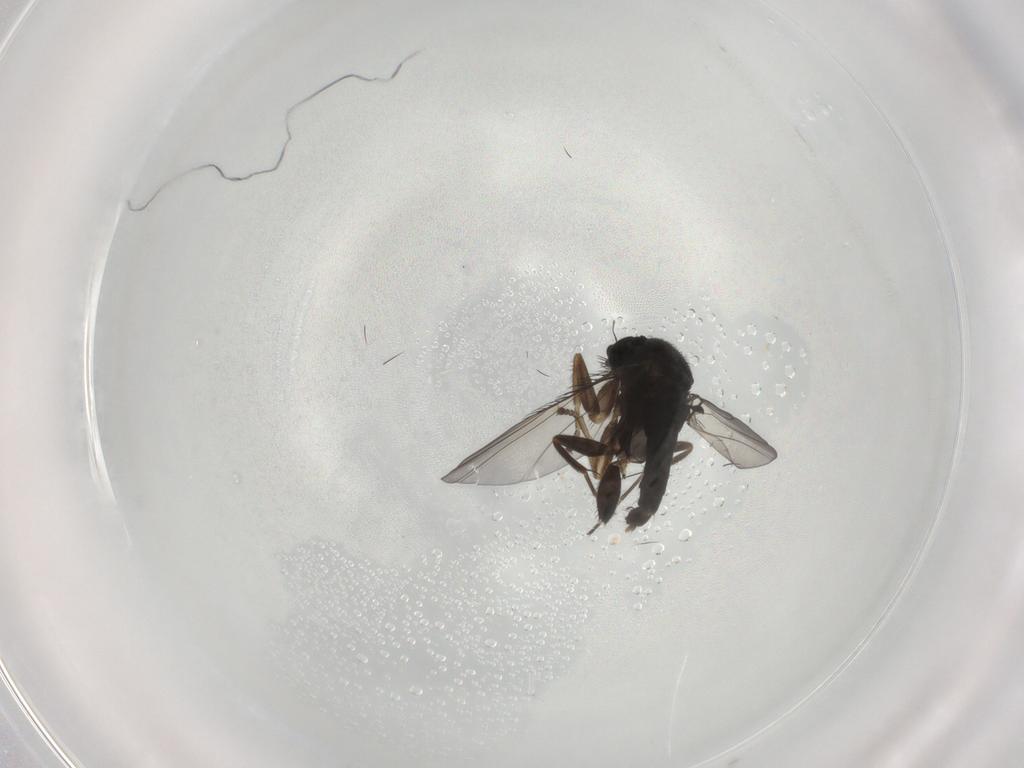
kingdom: Animalia
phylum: Arthropoda
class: Insecta
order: Diptera
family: Phoridae
